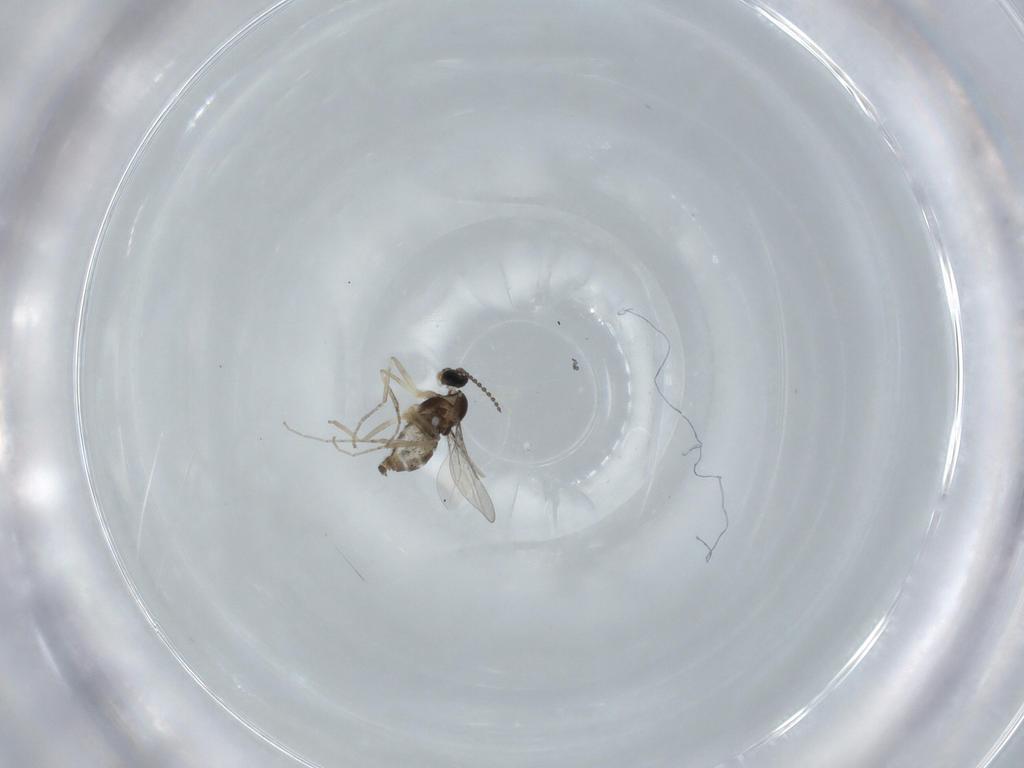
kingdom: Animalia
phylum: Arthropoda
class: Insecta
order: Diptera
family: Cecidomyiidae
